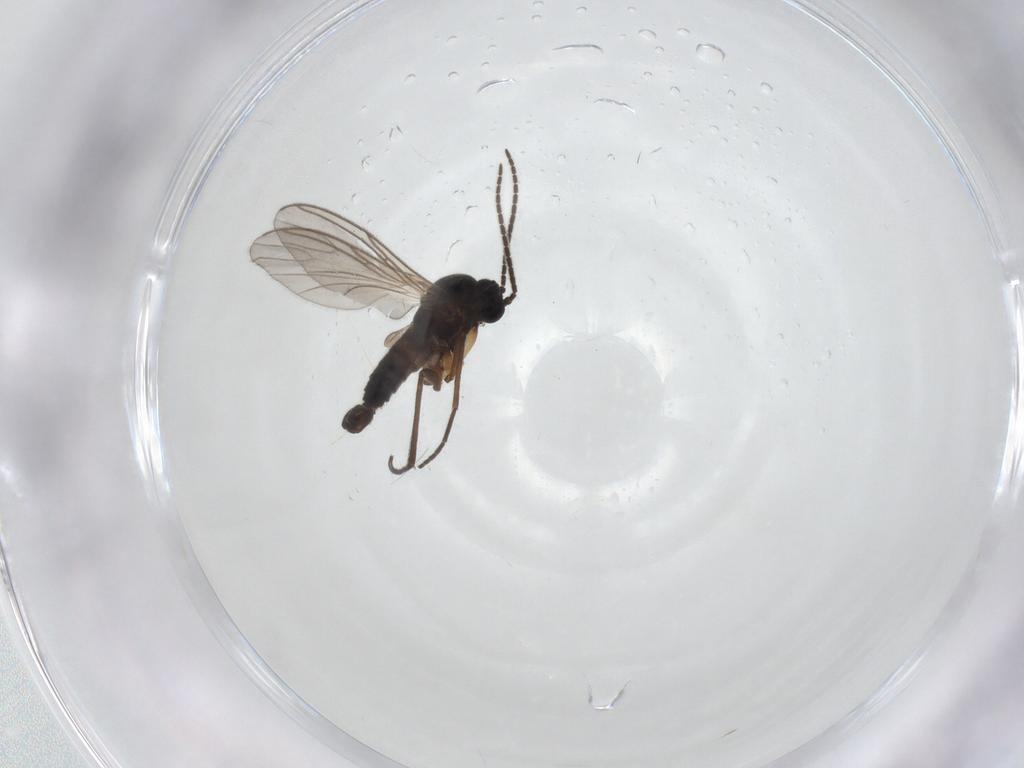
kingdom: Animalia
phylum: Arthropoda
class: Insecta
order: Diptera
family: Sciaridae
